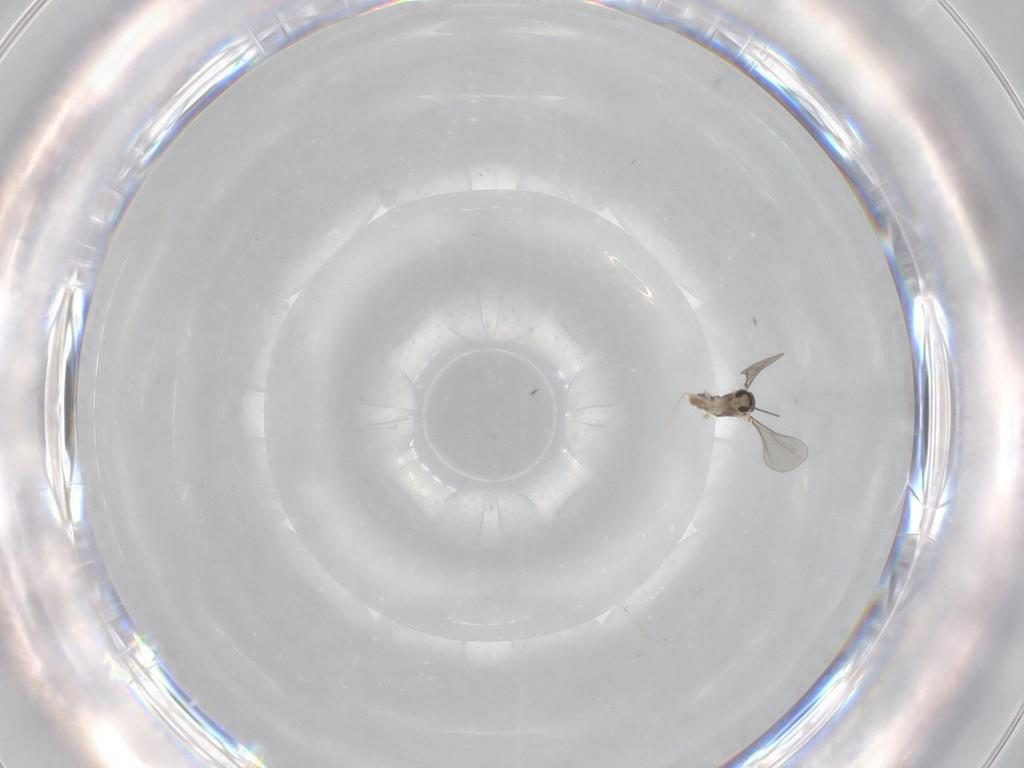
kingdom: Animalia
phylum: Arthropoda
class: Insecta
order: Diptera
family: Cecidomyiidae
